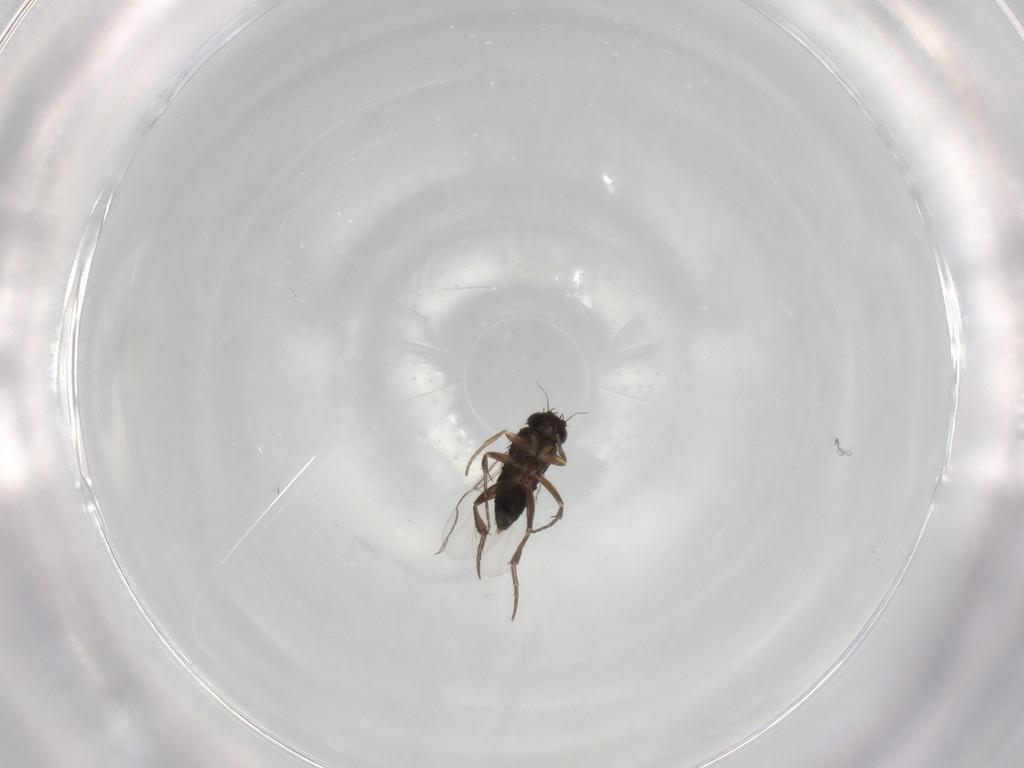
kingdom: Animalia
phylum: Arthropoda
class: Insecta
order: Diptera
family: Phoridae
